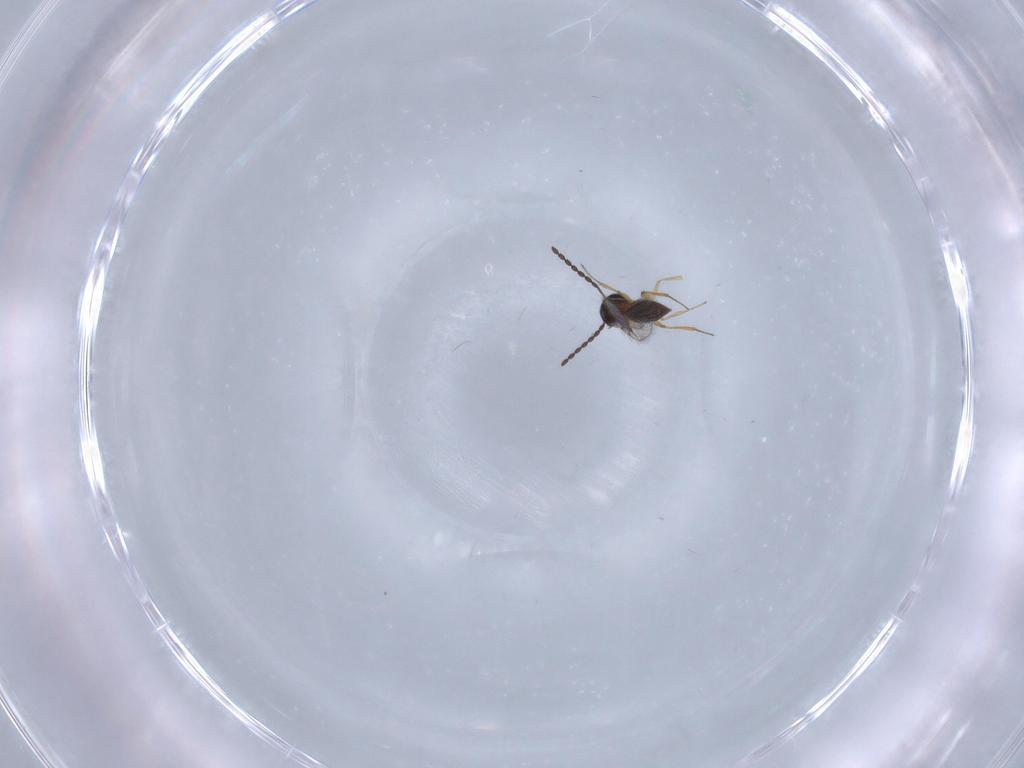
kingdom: Animalia
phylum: Arthropoda
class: Insecta
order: Hymenoptera
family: Figitidae
